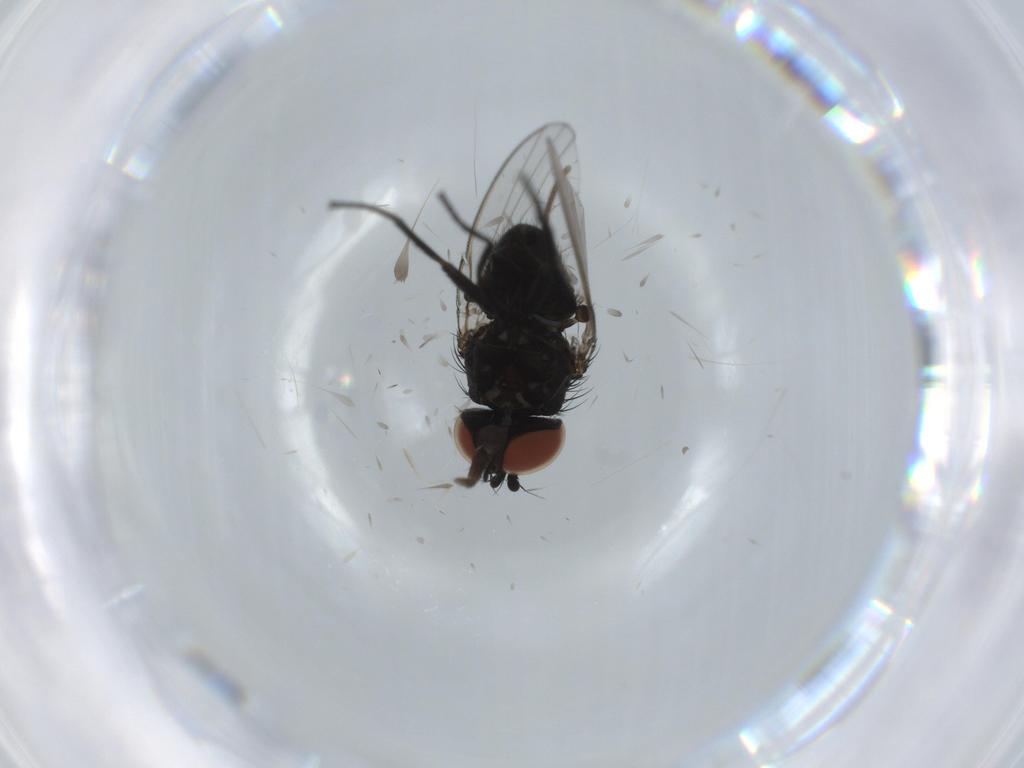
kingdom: Animalia
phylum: Arthropoda
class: Insecta
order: Diptera
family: Milichiidae
